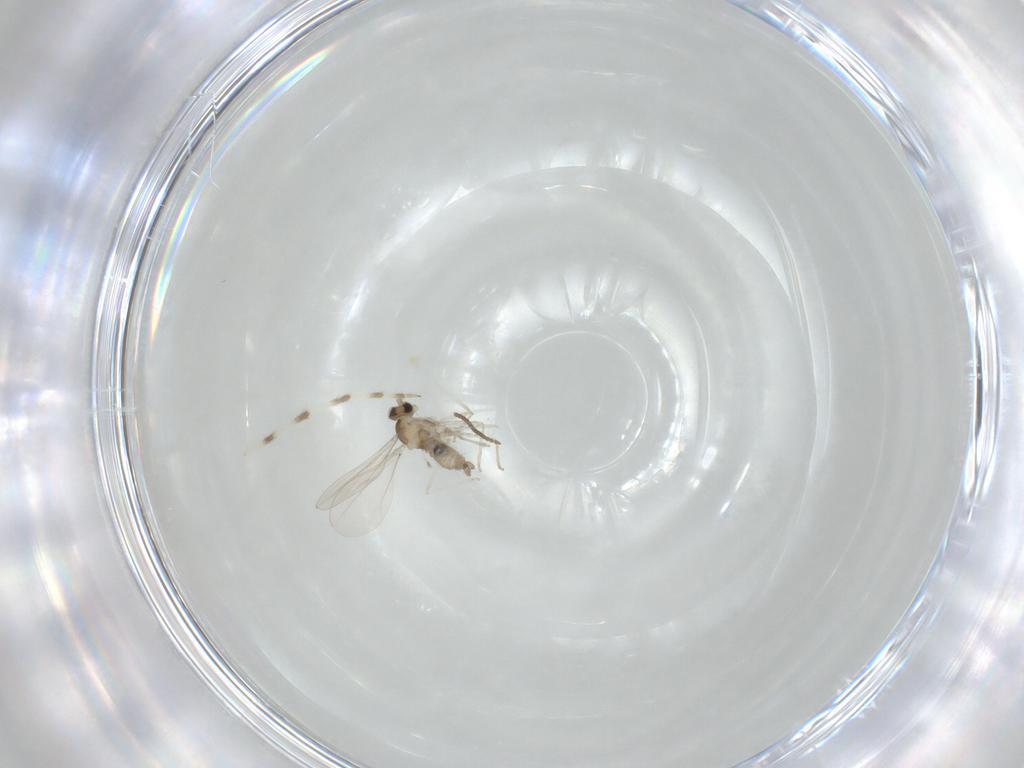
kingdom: Animalia
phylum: Arthropoda
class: Insecta
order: Diptera
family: Cecidomyiidae
